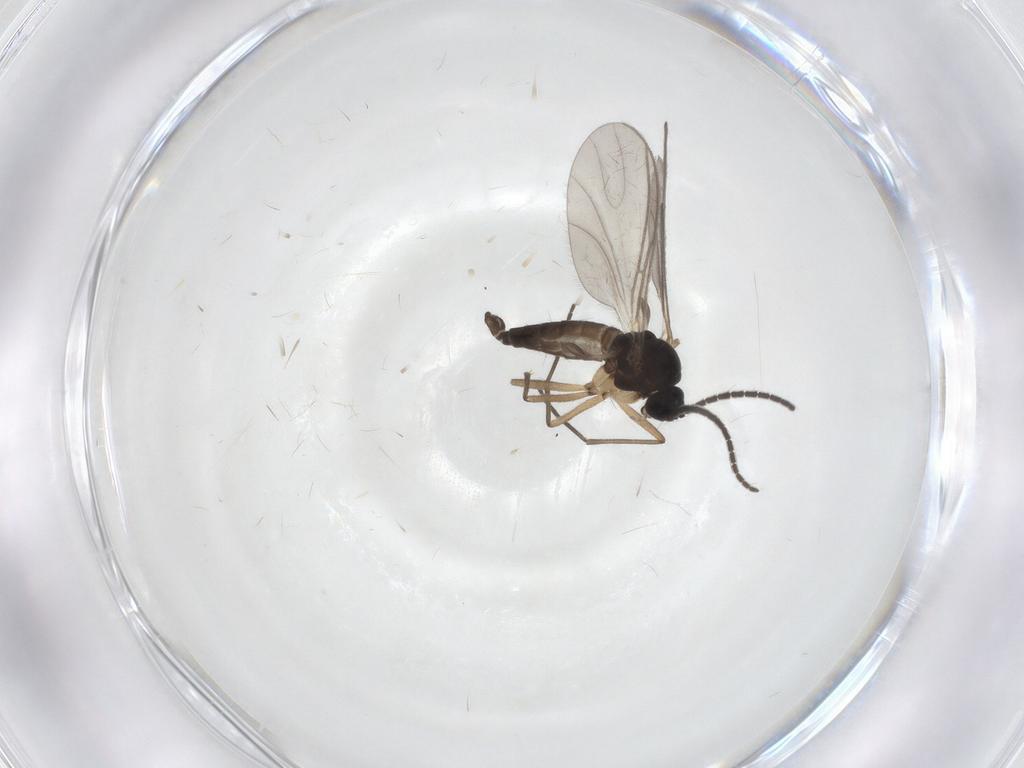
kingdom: Animalia
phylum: Arthropoda
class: Insecta
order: Diptera
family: Sciaridae
